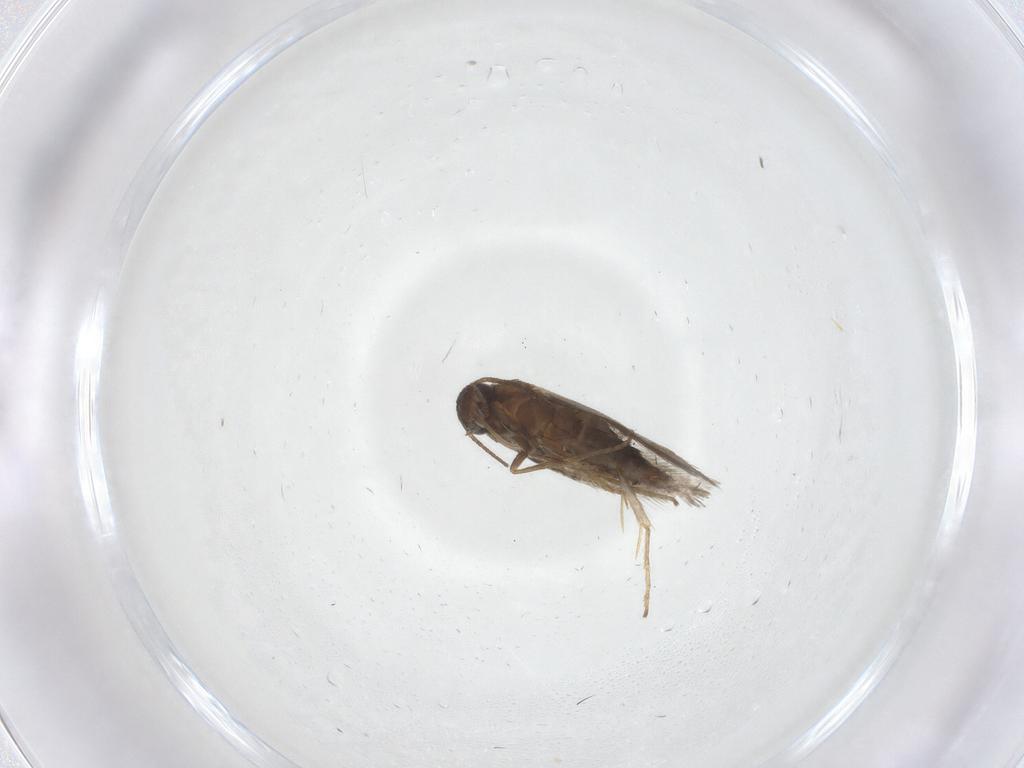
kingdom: Animalia
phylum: Arthropoda
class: Insecta
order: Lepidoptera
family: Heliozelidae
